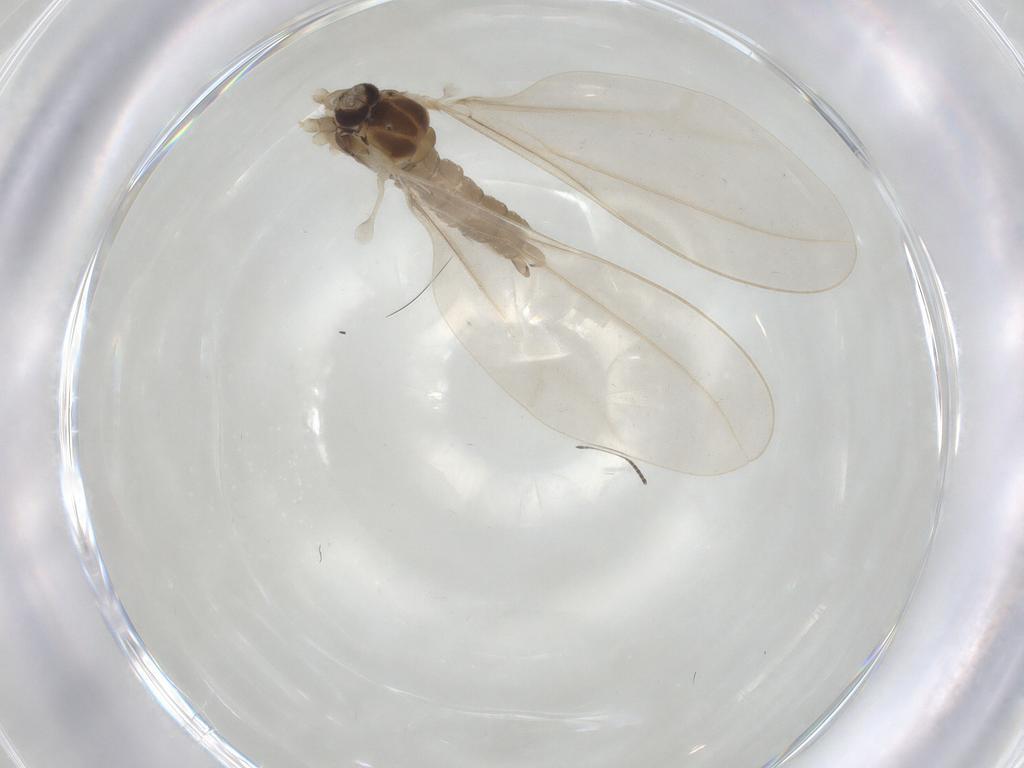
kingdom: Animalia
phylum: Arthropoda
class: Insecta
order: Diptera
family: Cecidomyiidae
